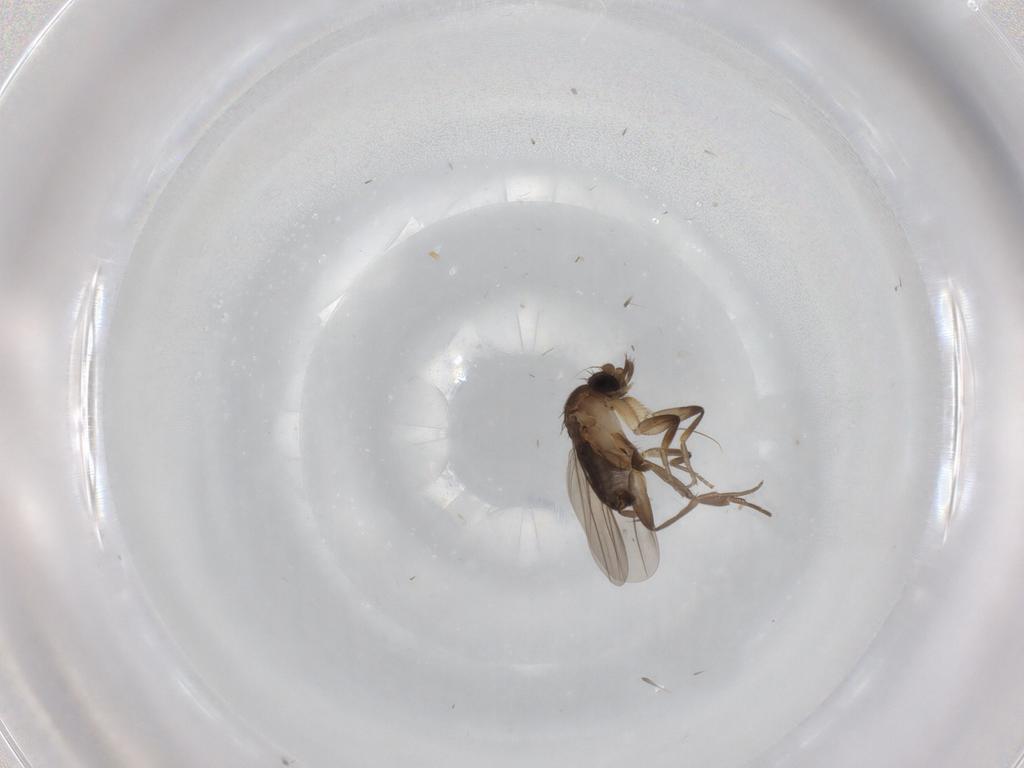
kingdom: Animalia
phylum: Arthropoda
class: Insecta
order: Diptera
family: Phoridae
